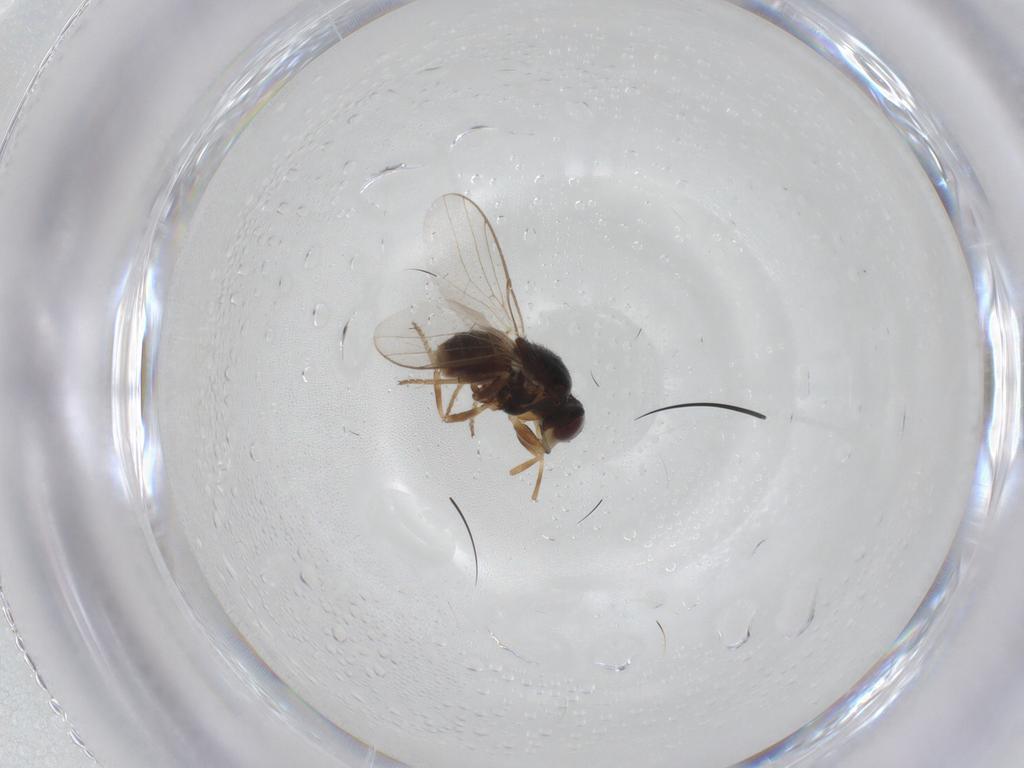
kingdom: Animalia
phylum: Arthropoda
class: Insecta
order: Diptera
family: Chloropidae
